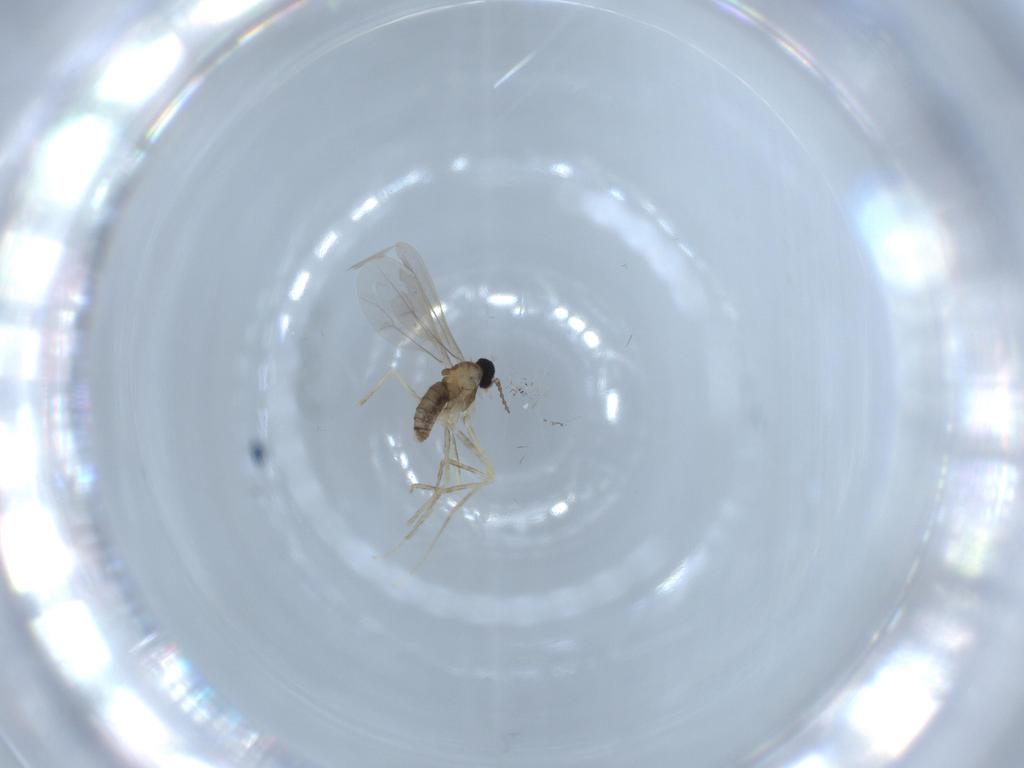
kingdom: Animalia
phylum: Arthropoda
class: Insecta
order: Diptera
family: Cecidomyiidae
